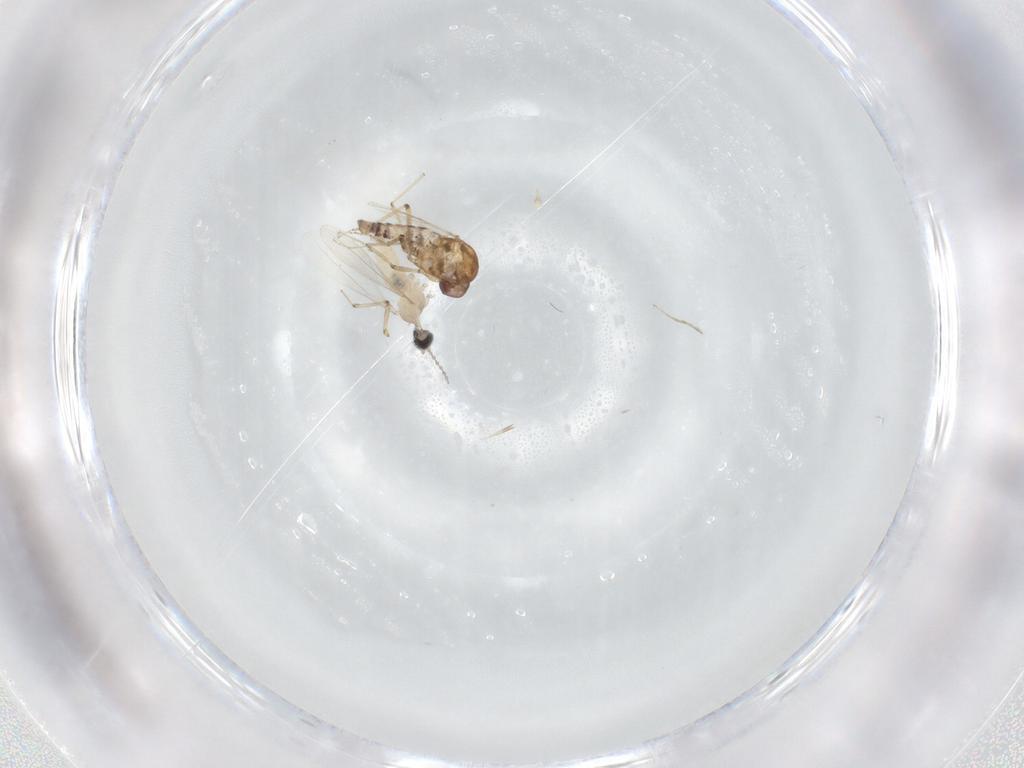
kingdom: Animalia
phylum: Arthropoda
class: Insecta
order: Diptera
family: Ceratopogonidae
